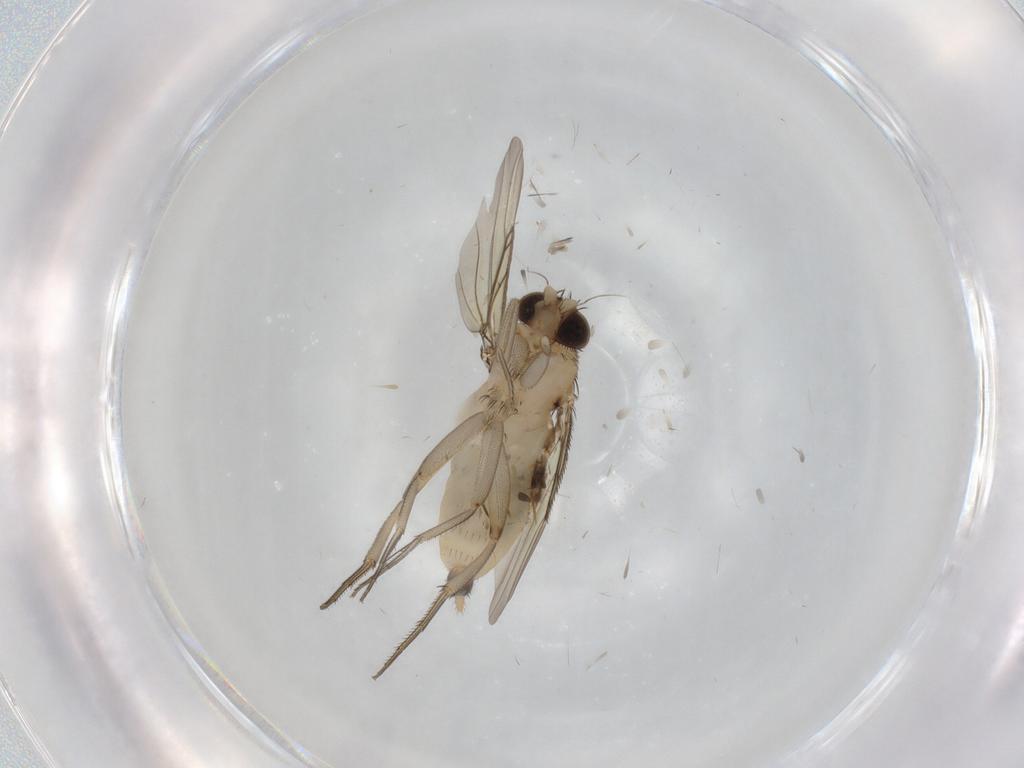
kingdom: Animalia
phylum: Arthropoda
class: Insecta
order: Diptera
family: Phoridae
